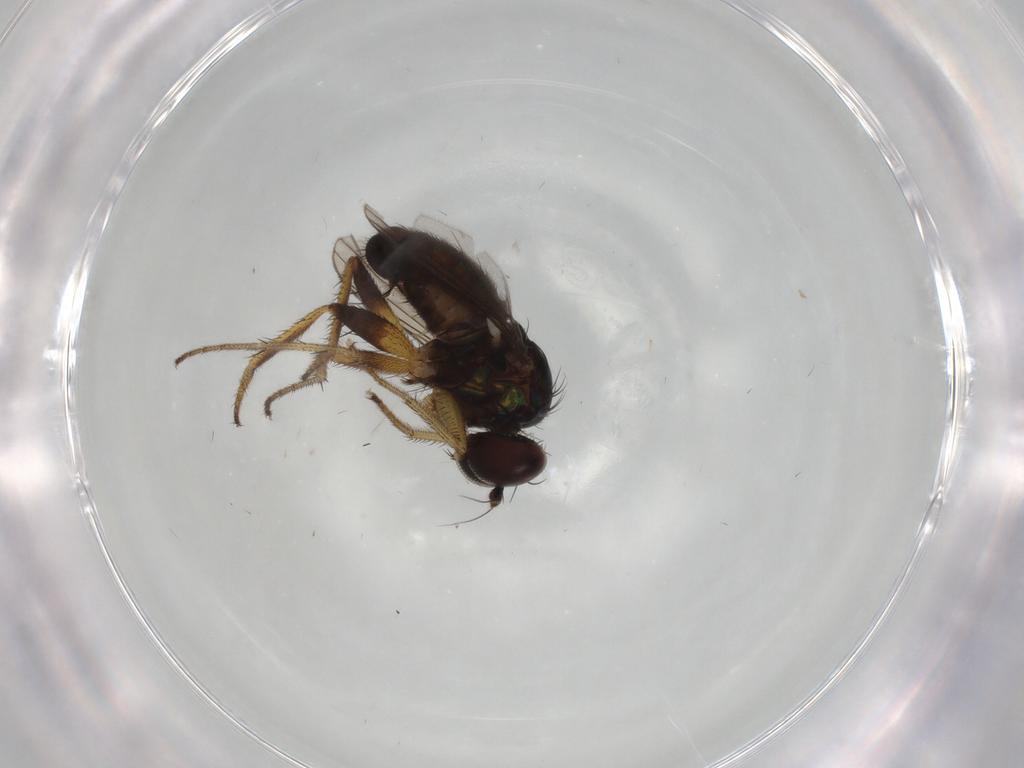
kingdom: Animalia
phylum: Arthropoda
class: Insecta
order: Diptera
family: Dolichopodidae
